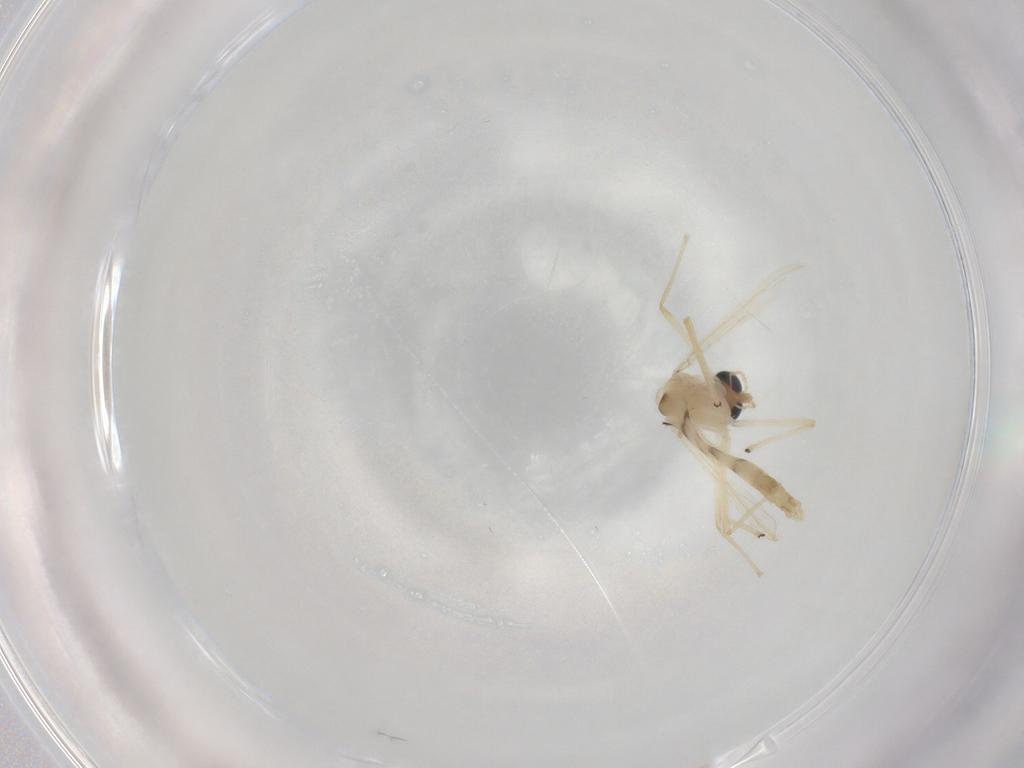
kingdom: Animalia
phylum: Arthropoda
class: Insecta
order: Diptera
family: Chironomidae
